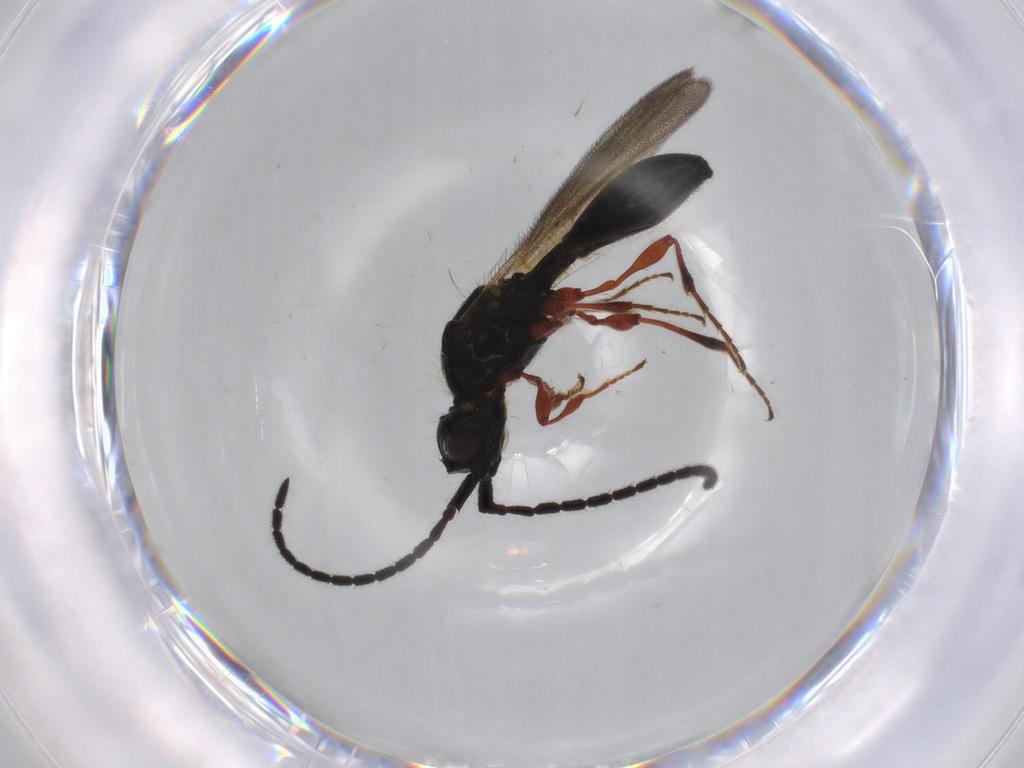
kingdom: Animalia
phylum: Arthropoda
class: Insecta
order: Hymenoptera
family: Diapriidae
